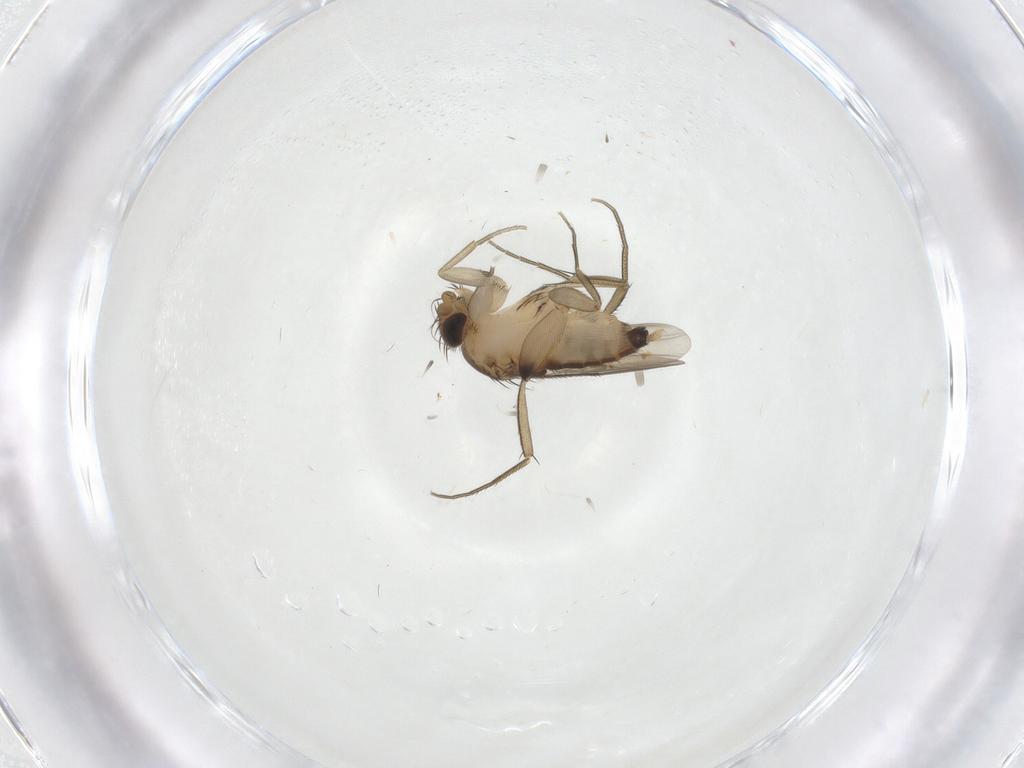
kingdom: Animalia
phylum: Arthropoda
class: Insecta
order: Diptera
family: Phoridae
